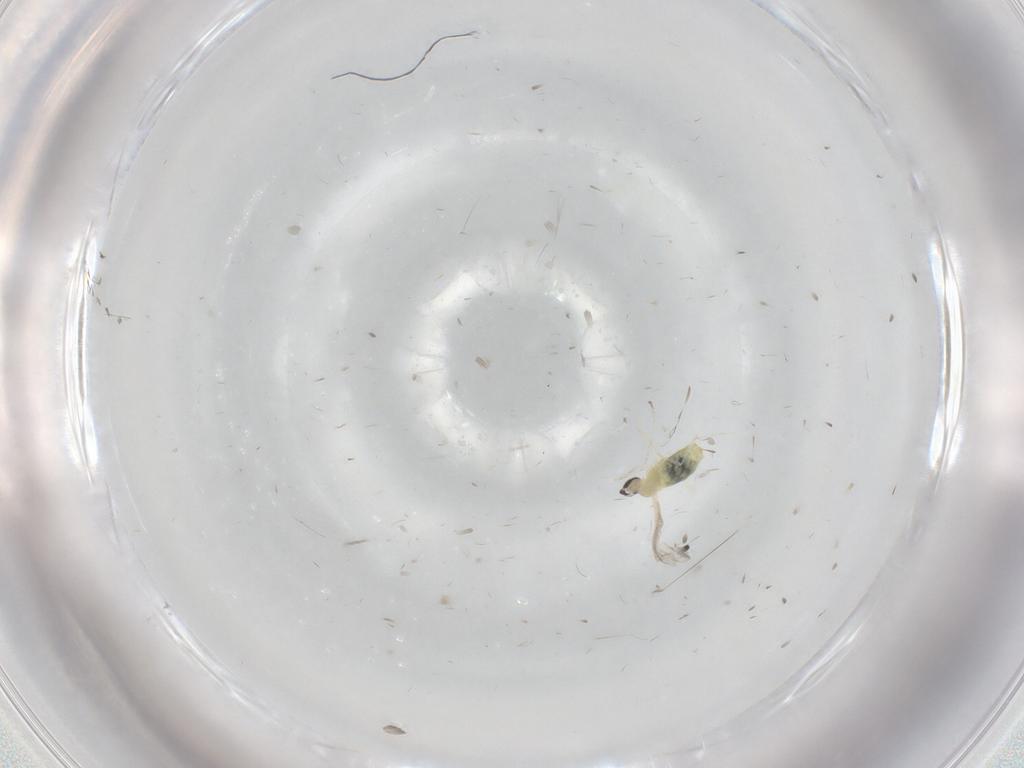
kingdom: Animalia
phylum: Arthropoda
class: Insecta
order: Diptera
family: Cecidomyiidae
